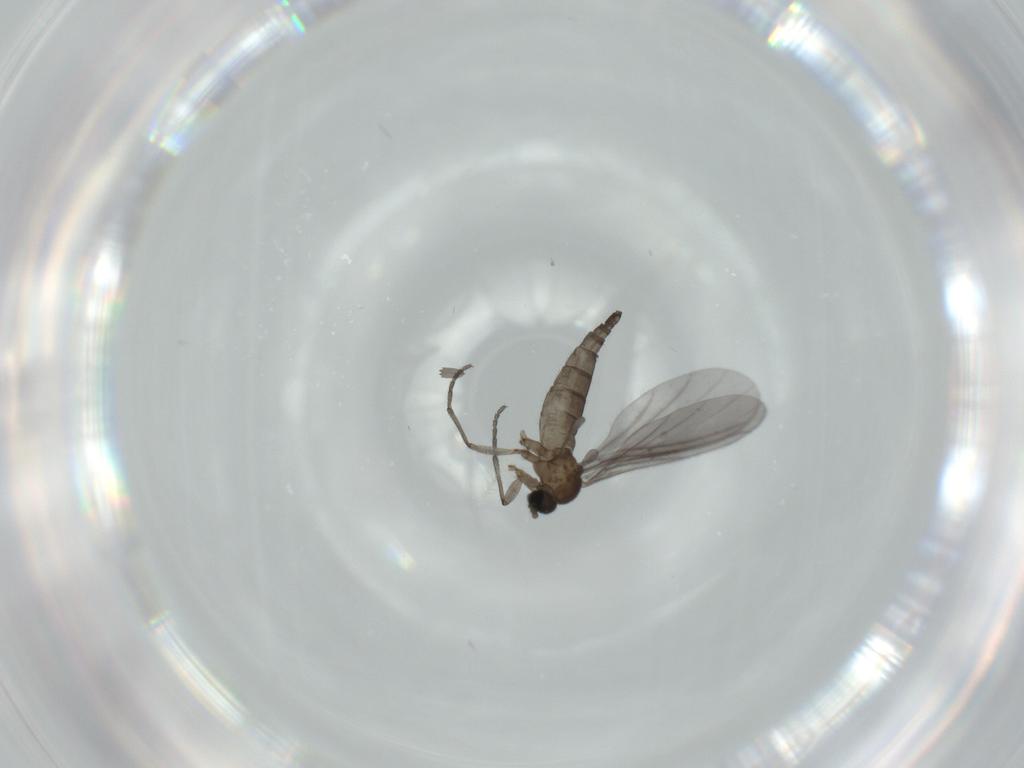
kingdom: Animalia
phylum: Arthropoda
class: Insecta
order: Diptera
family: Sciaridae
